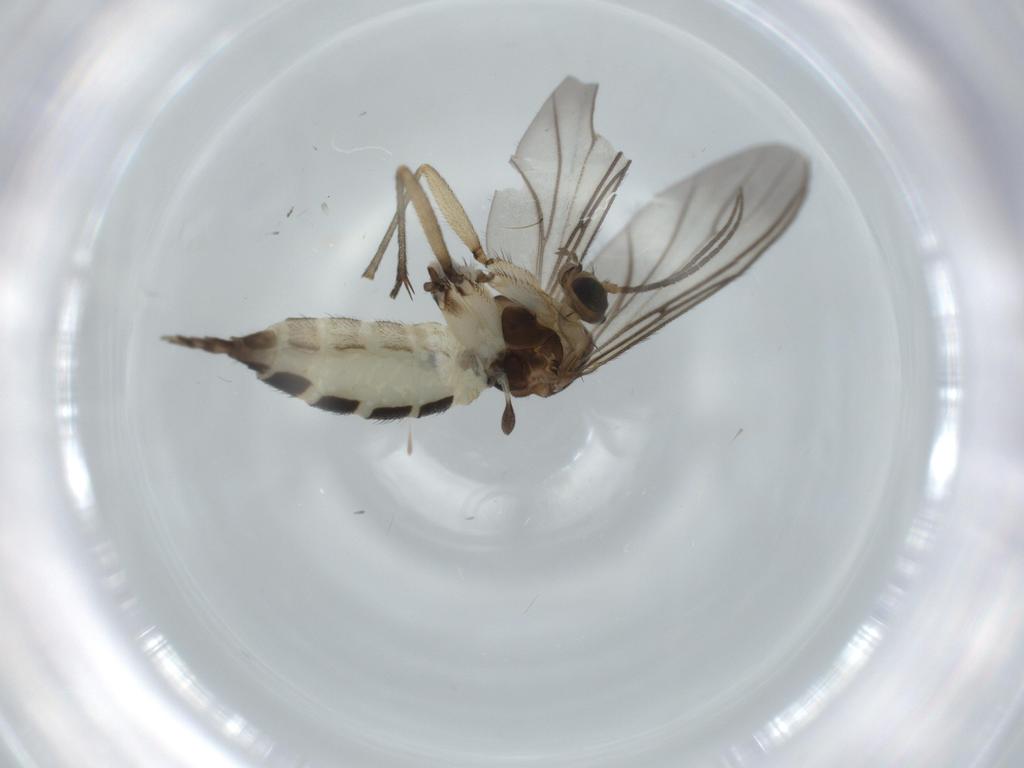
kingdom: Animalia
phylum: Arthropoda
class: Insecta
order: Diptera
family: Sciaridae
